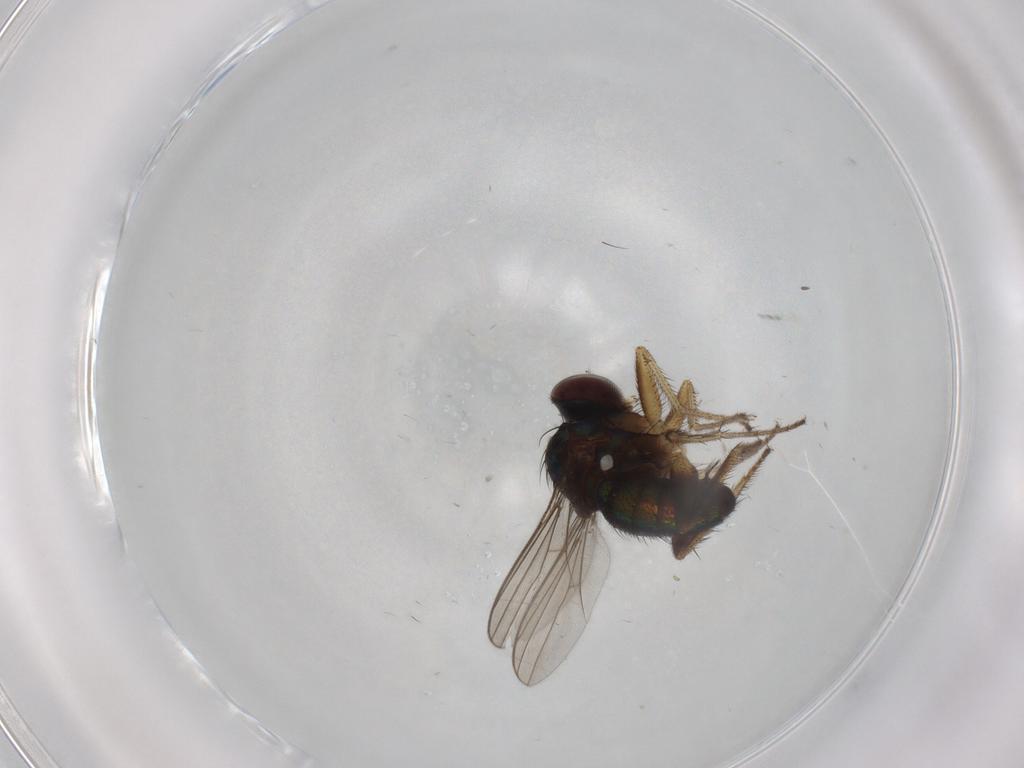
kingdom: Animalia
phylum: Arthropoda
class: Insecta
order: Diptera
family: Dolichopodidae
